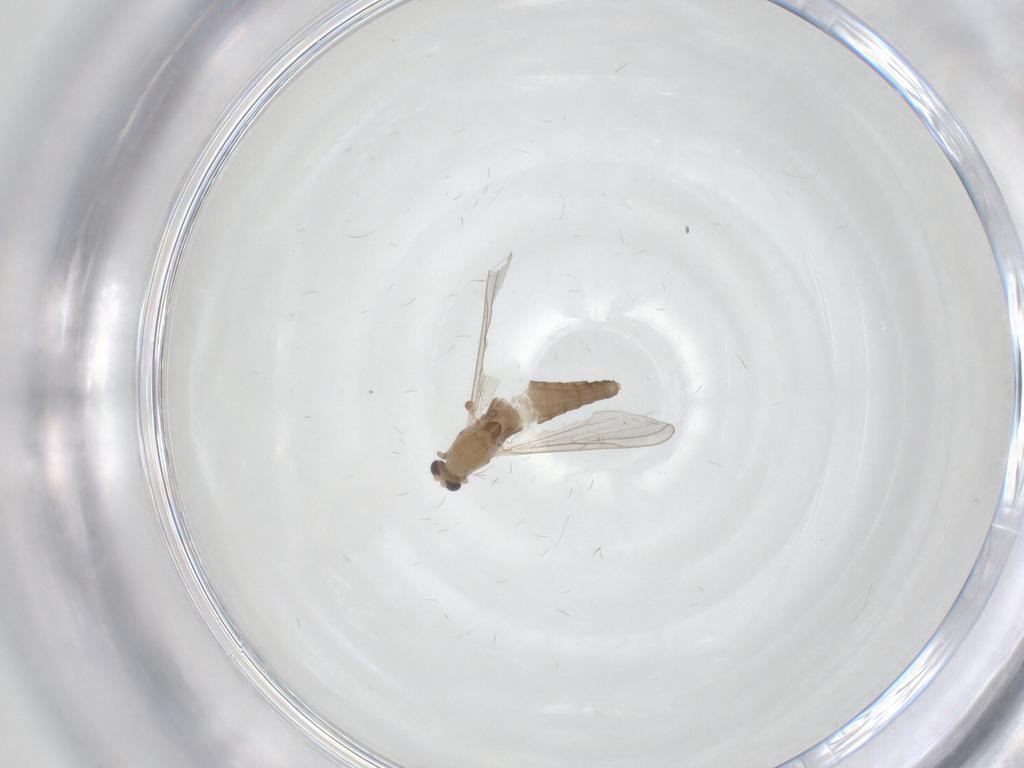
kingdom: Animalia
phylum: Arthropoda
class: Insecta
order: Diptera
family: Chironomidae
